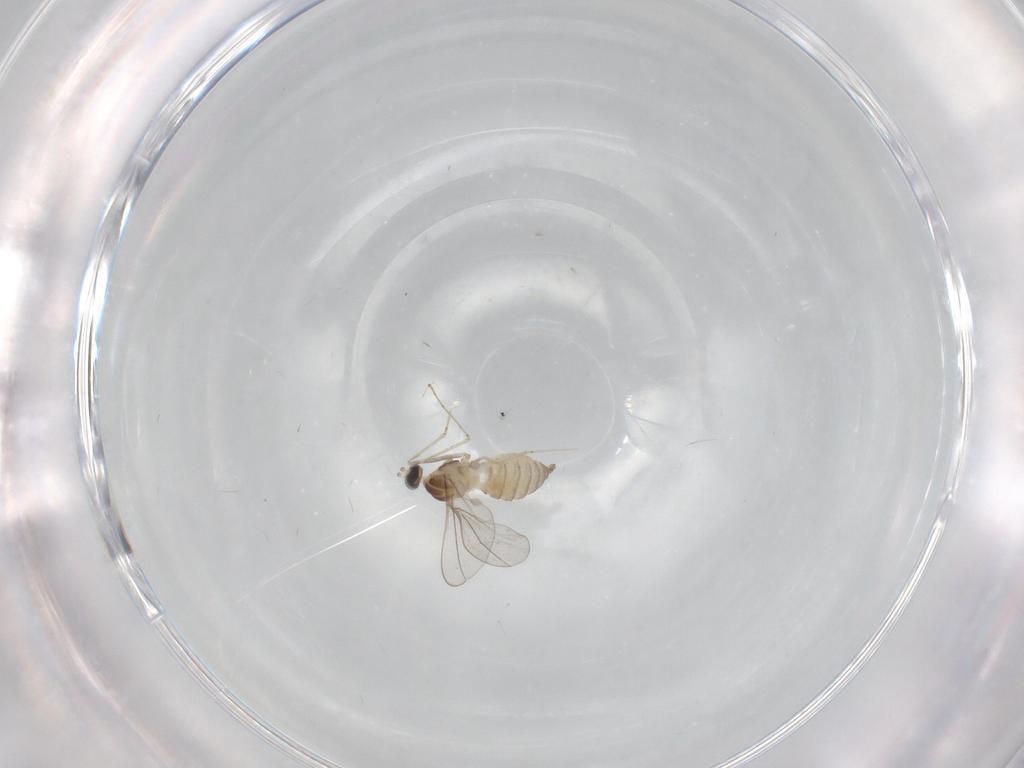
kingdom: Animalia
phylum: Arthropoda
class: Insecta
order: Diptera
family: Cecidomyiidae
